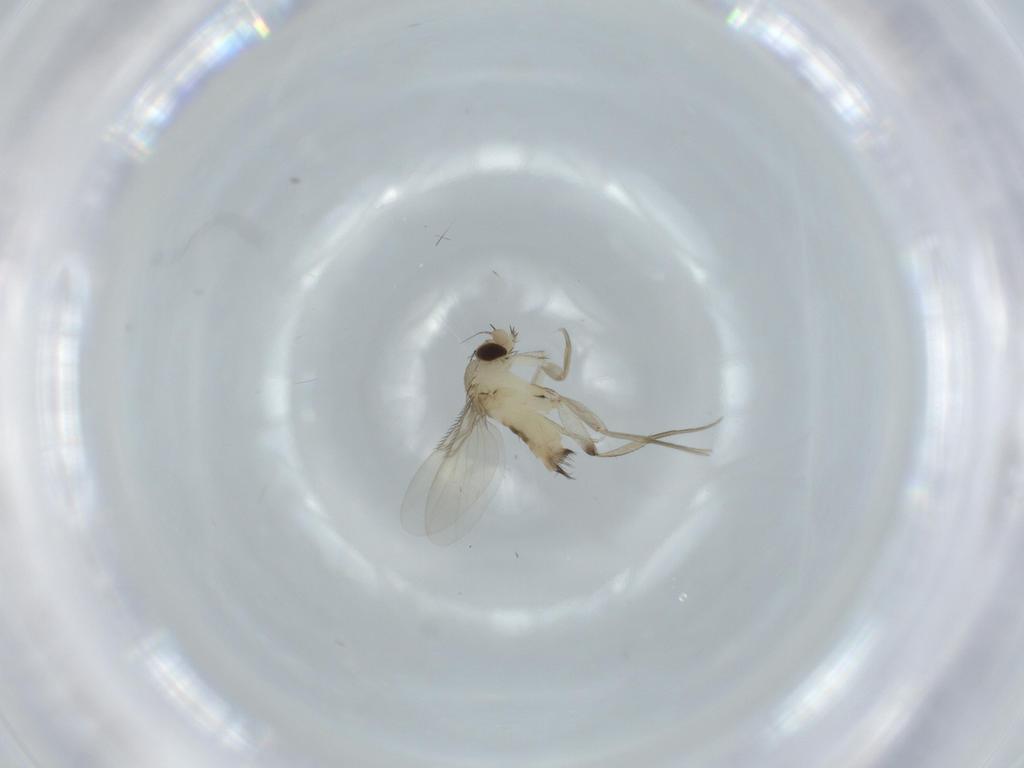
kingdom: Animalia
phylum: Arthropoda
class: Insecta
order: Diptera
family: Phoridae
